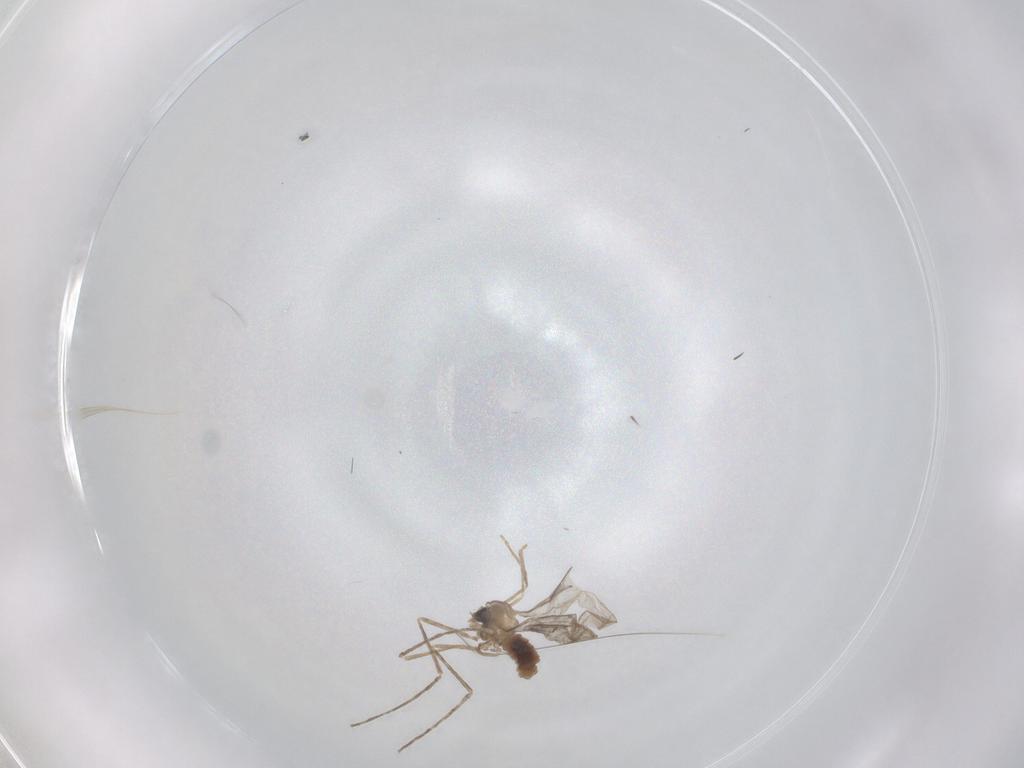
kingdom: Animalia
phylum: Arthropoda
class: Insecta
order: Diptera
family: Cecidomyiidae
